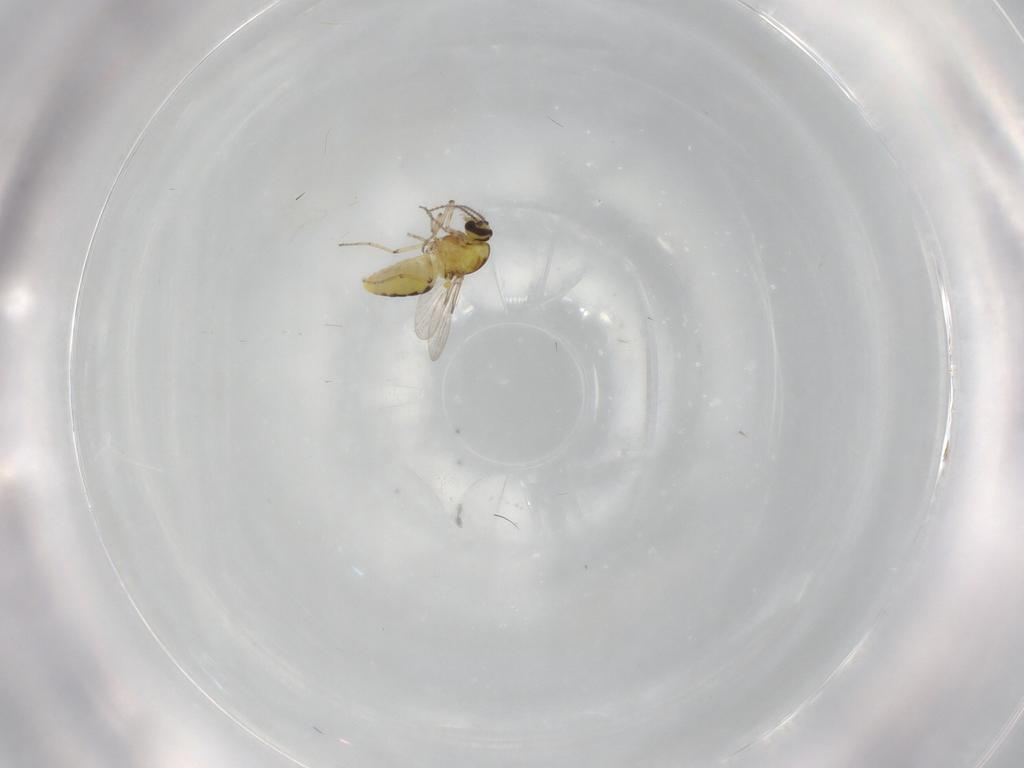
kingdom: Animalia
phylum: Arthropoda
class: Insecta
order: Diptera
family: Ceratopogonidae
